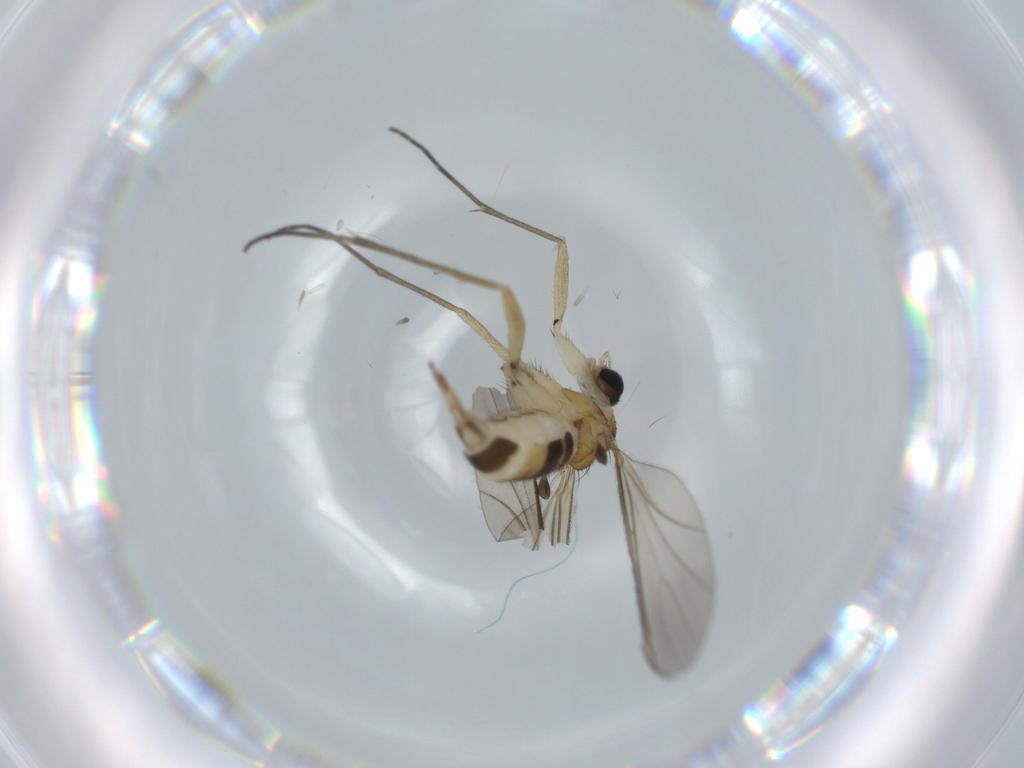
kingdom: Animalia
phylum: Arthropoda
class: Insecta
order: Diptera
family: Sciaridae
